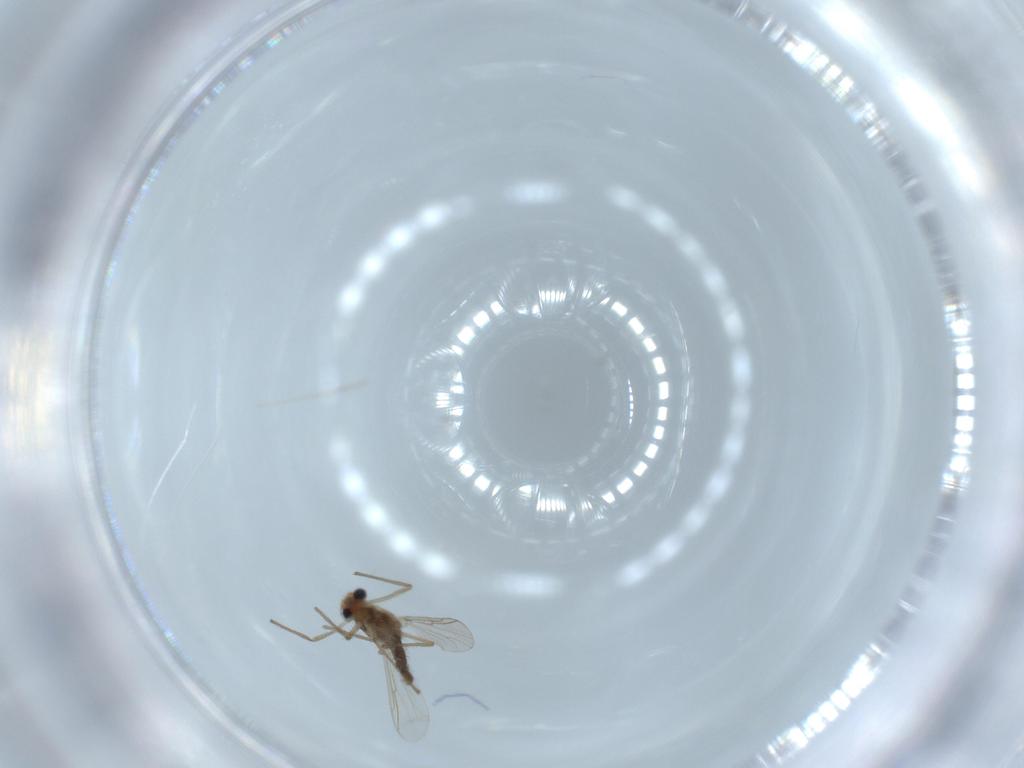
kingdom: Animalia
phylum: Arthropoda
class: Insecta
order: Diptera
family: Chironomidae
